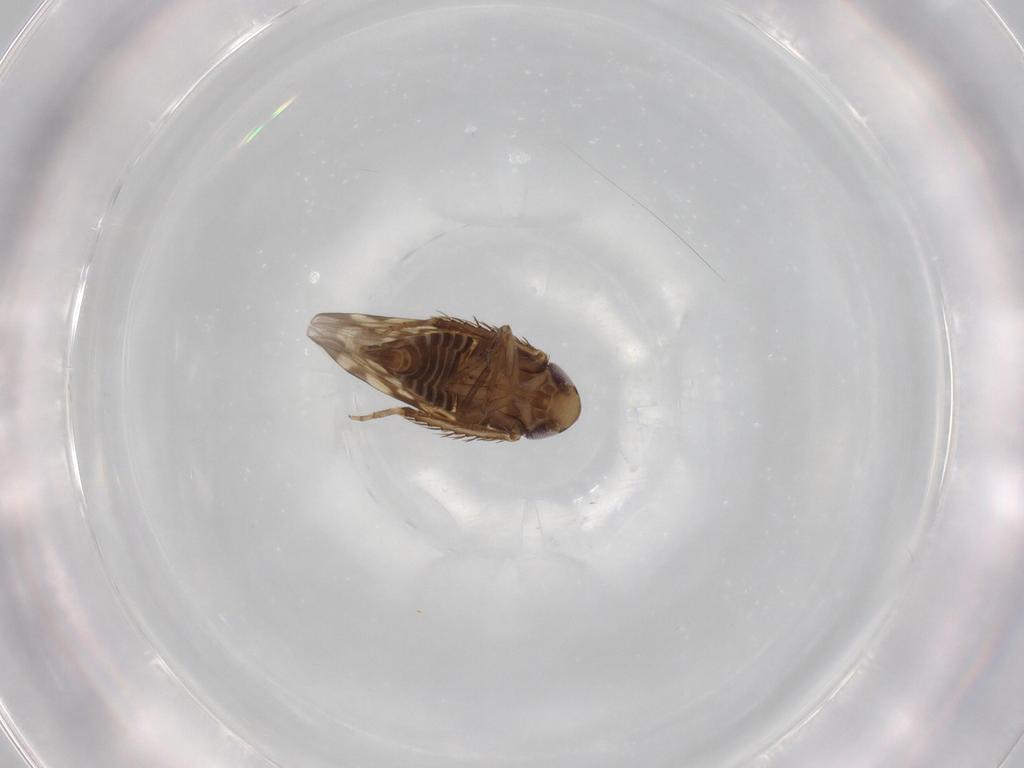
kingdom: Animalia
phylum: Arthropoda
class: Insecta
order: Hemiptera
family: Cicadellidae
